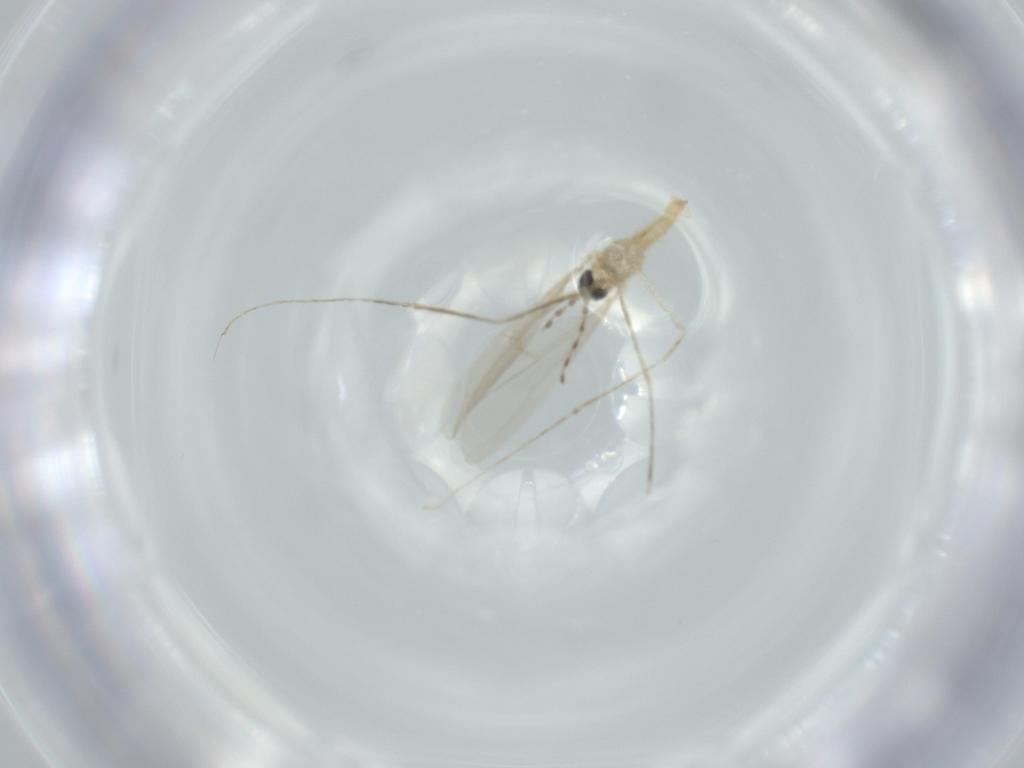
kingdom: Animalia
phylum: Arthropoda
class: Insecta
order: Diptera
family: Cecidomyiidae
